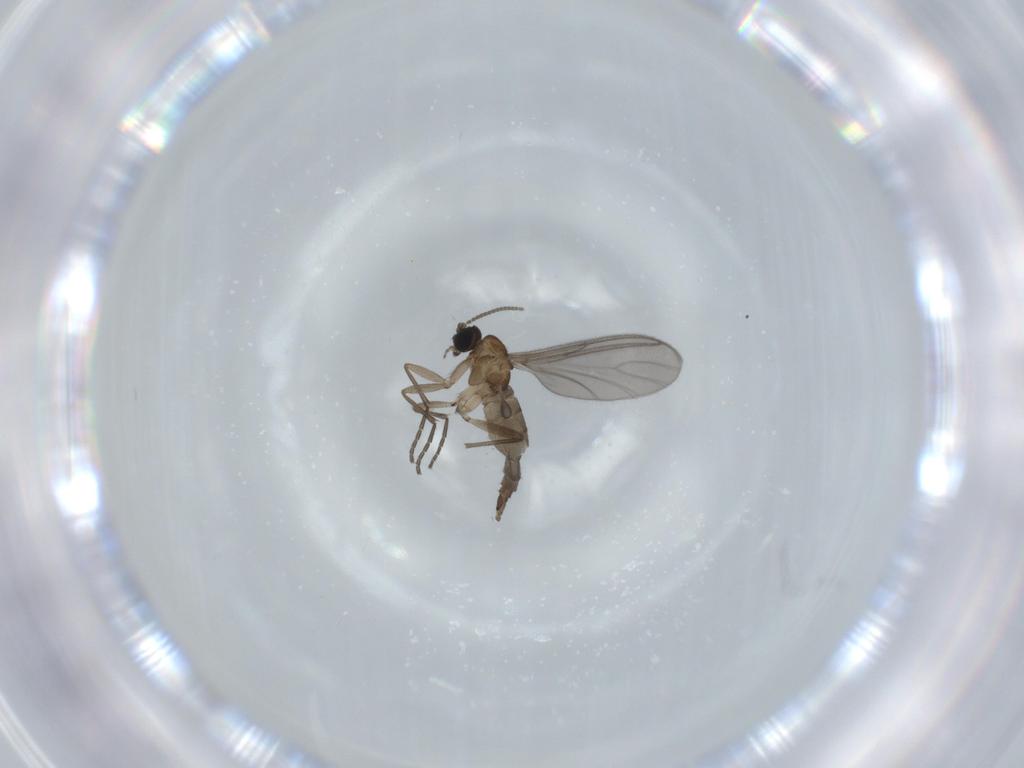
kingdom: Animalia
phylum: Arthropoda
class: Insecta
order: Diptera
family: Sciaridae
